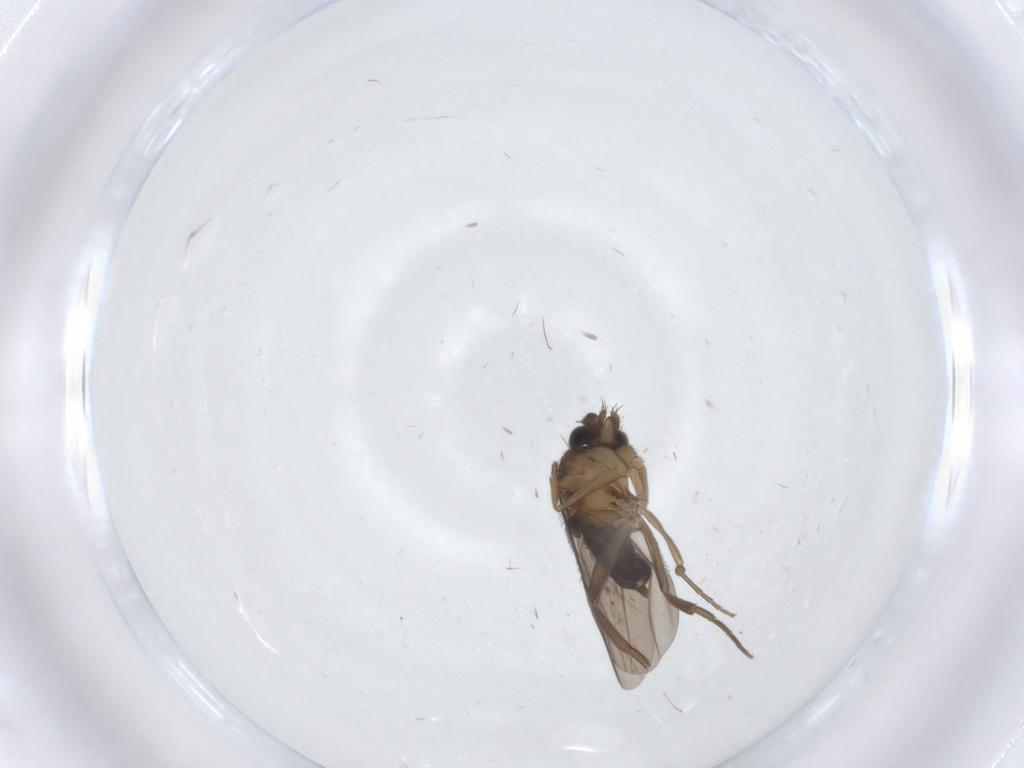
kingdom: Animalia
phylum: Arthropoda
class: Insecta
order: Diptera
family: Cecidomyiidae
